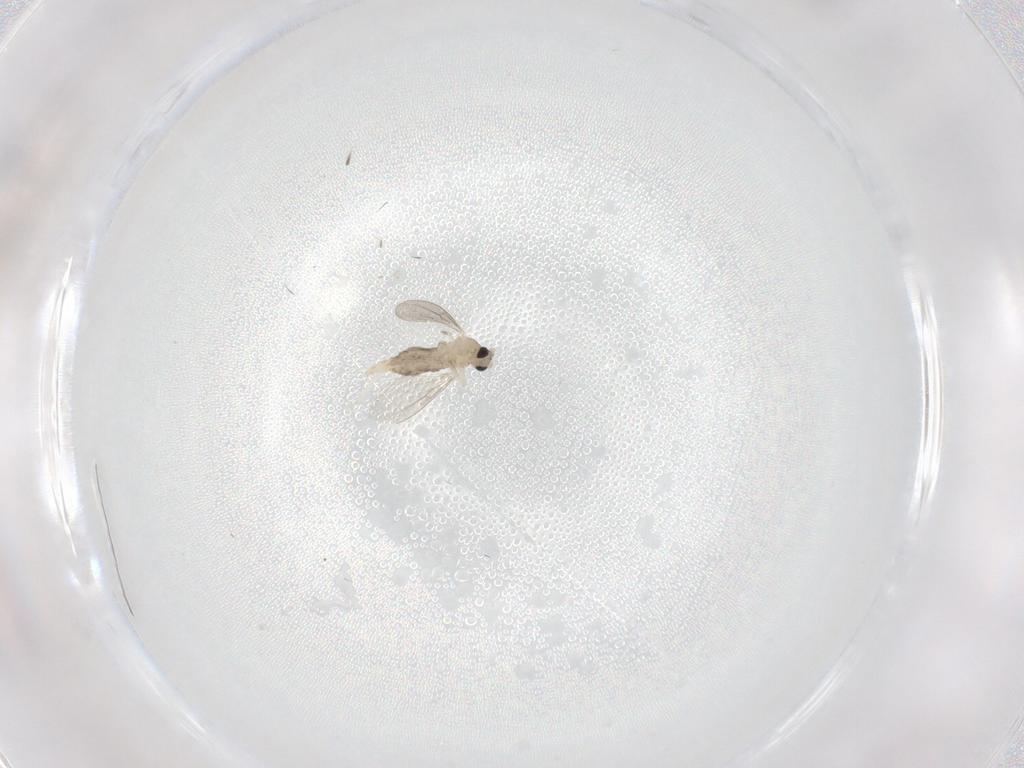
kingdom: Animalia
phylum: Arthropoda
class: Insecta
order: Diptera
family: Cecidomyiidae
